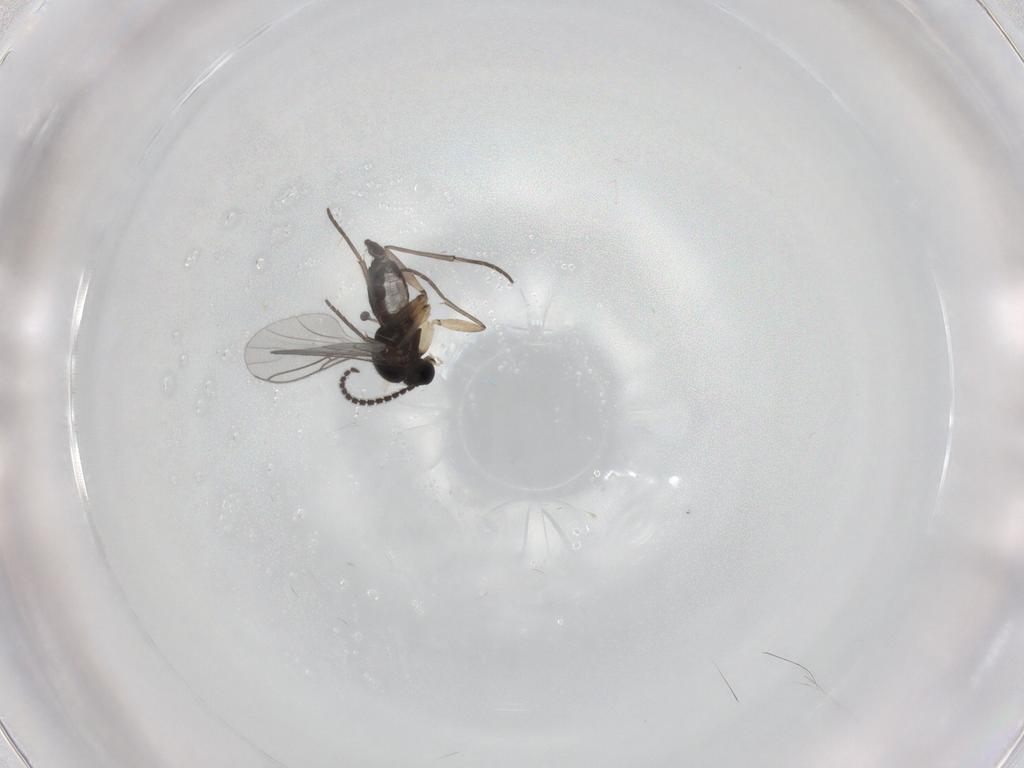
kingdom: Animalia
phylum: Arthropoda
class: Insecta
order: Diptera
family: Sciaridae
